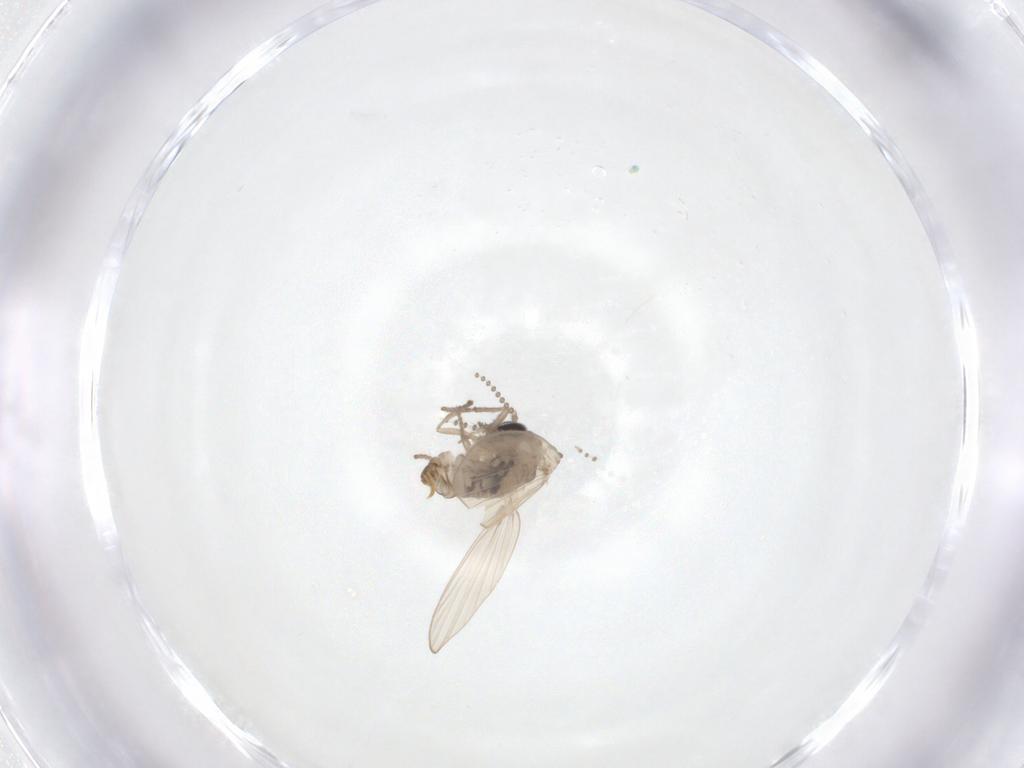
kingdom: Animalia
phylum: Arthropoda
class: Insecta
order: Diptera
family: Psychodidae
